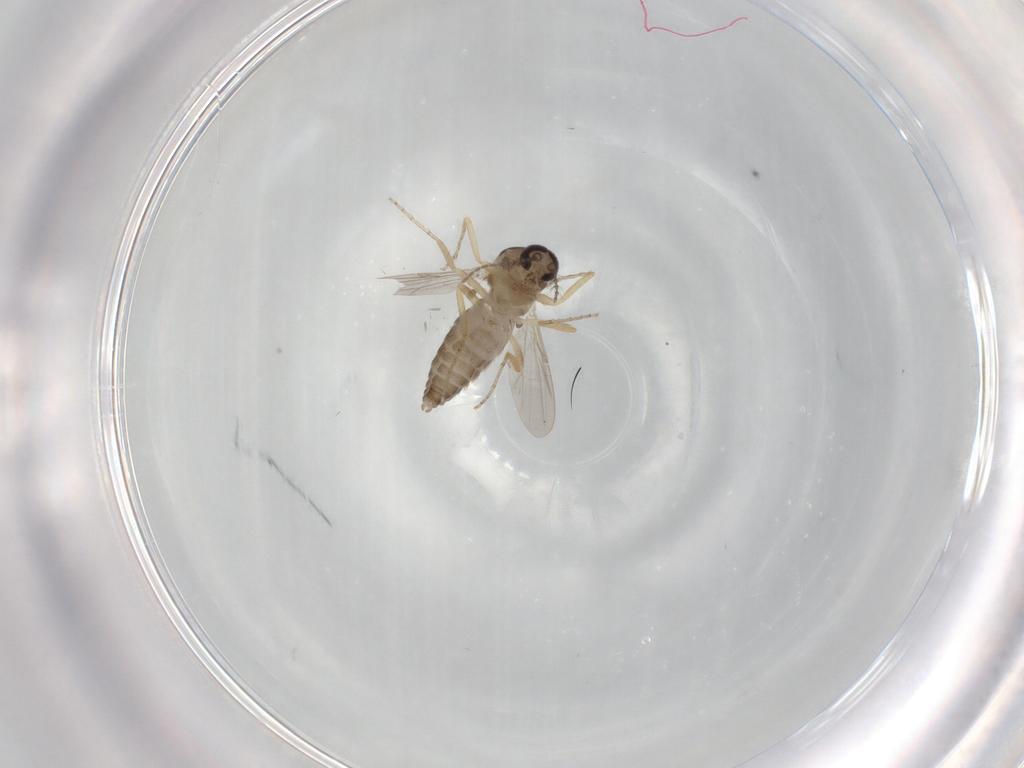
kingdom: Animalia
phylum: Arthropoda
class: Insecta
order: Diptera
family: Ceratopogonidae
